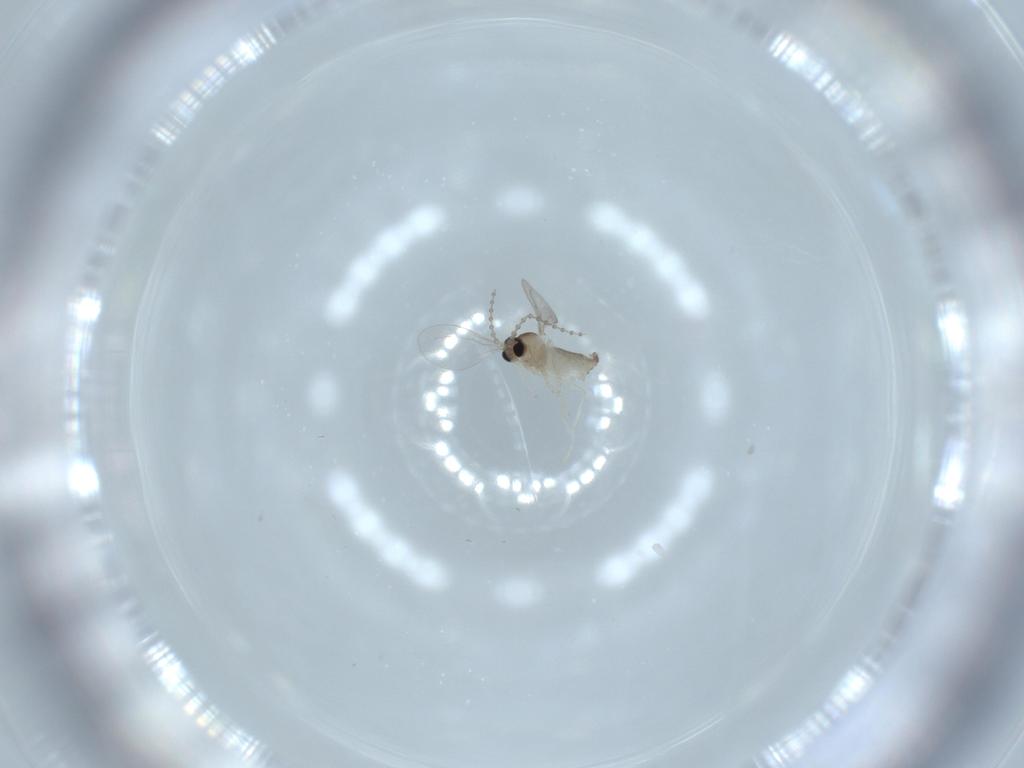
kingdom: Animalia
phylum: Arthropoda
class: Insecta
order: Diptera
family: Cecidomyiidae
